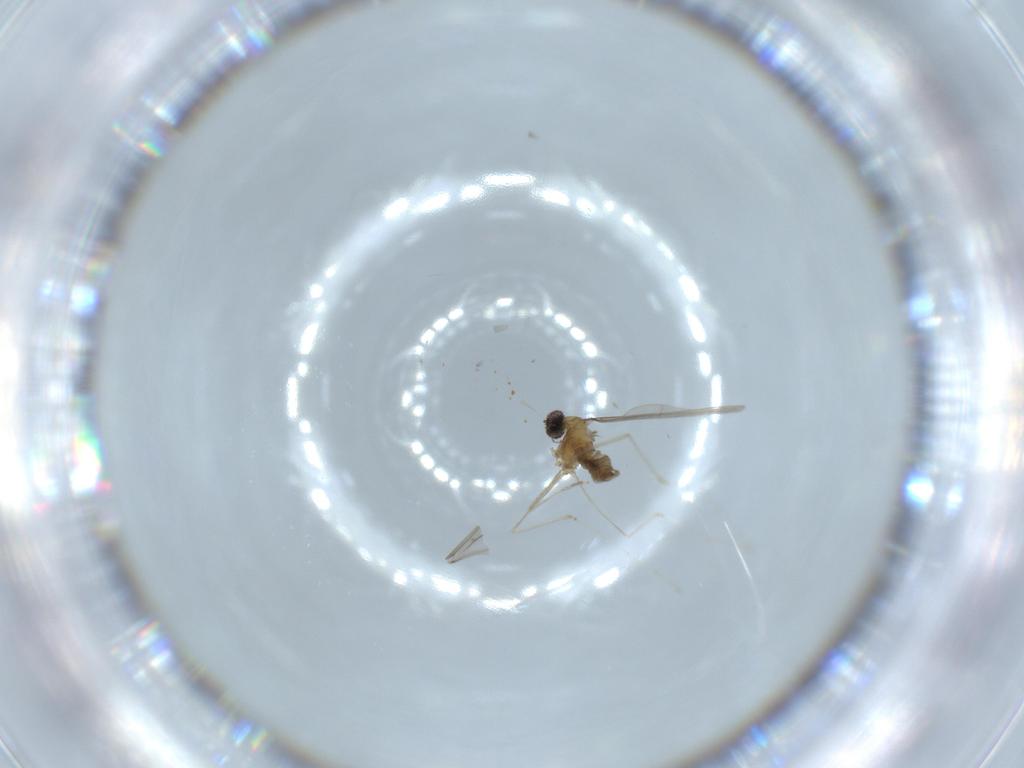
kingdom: Animalia
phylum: Arthropoda
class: Insecta
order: Diptera
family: Cecidomyiidae
